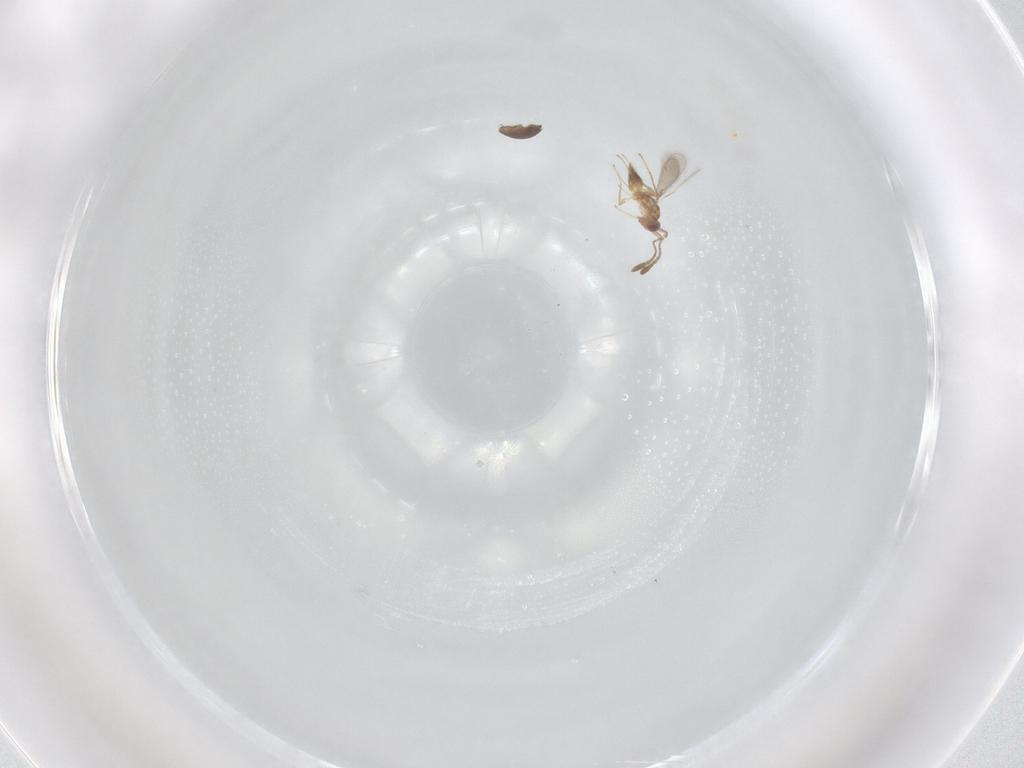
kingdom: Animalia
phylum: Arthropoda
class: Insecta
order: Hymenoptera
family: Mymaridae
